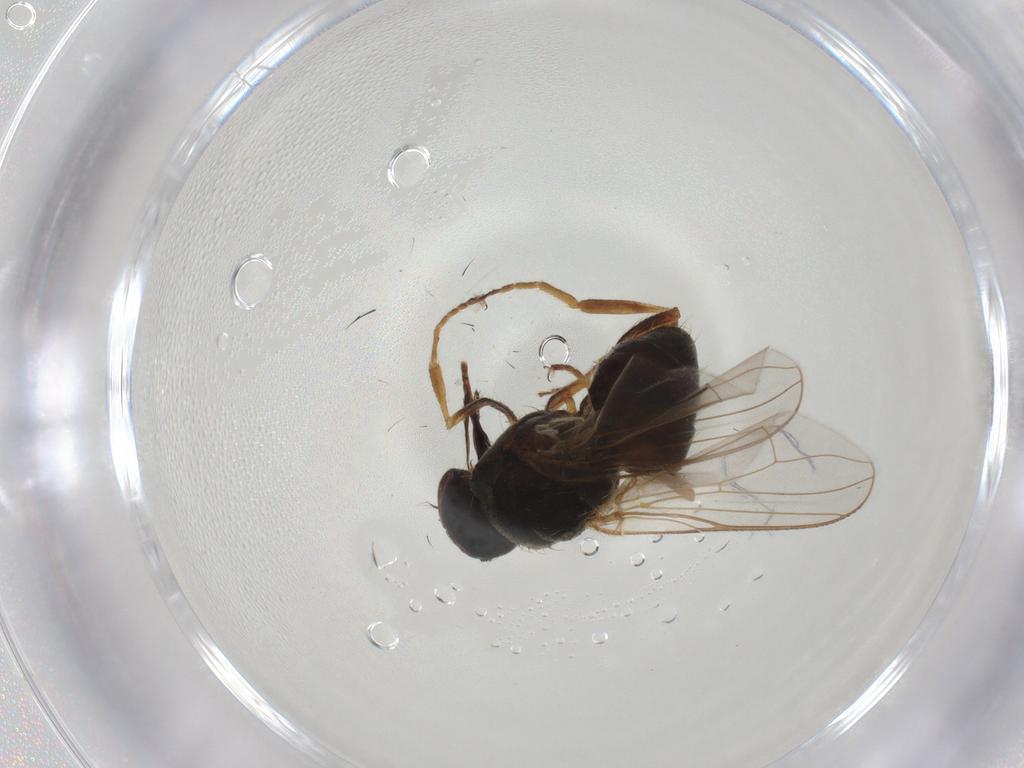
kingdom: Animalia
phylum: Arthropoda
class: Insecta
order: Diptera
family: Muscidae
